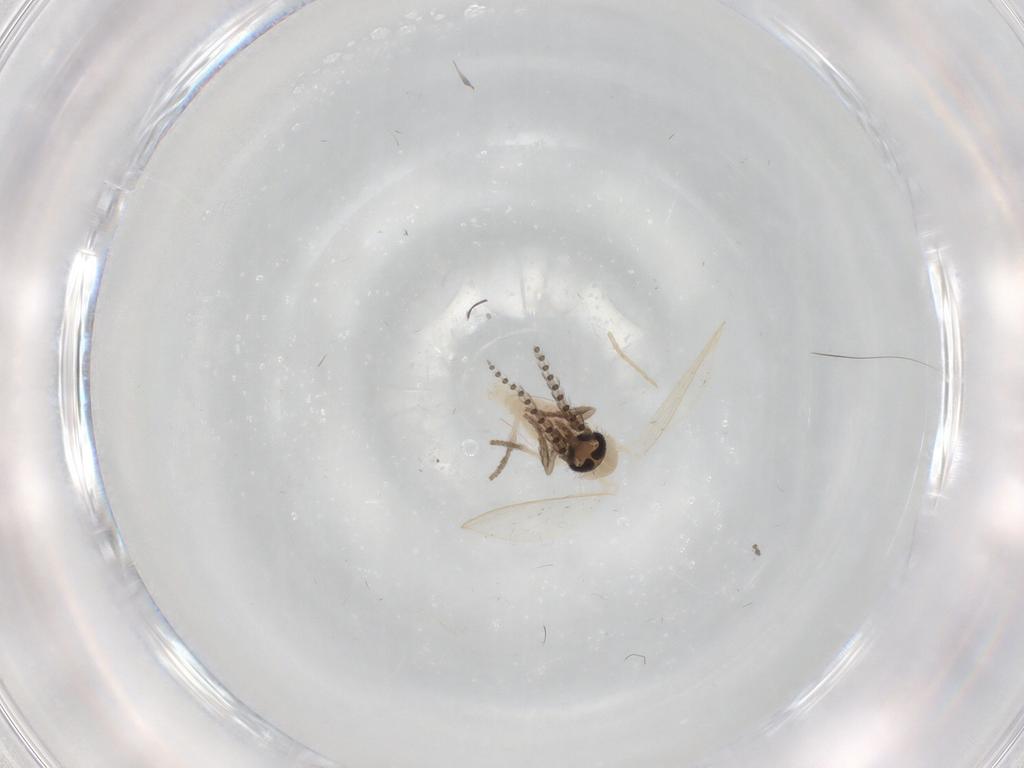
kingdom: Animalia
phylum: Arthropoda
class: Insecta
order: Diptera
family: Psychodidae
